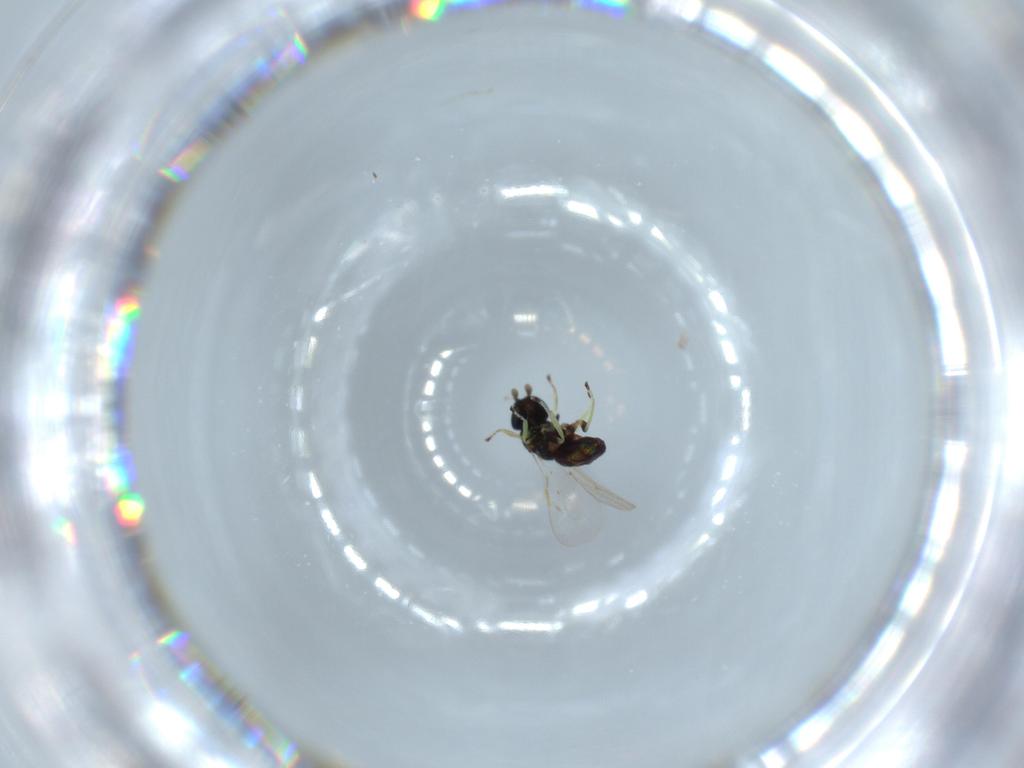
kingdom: Animalia
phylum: Arthropoda
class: Insecta
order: Hymenoptera
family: Eulophidae
